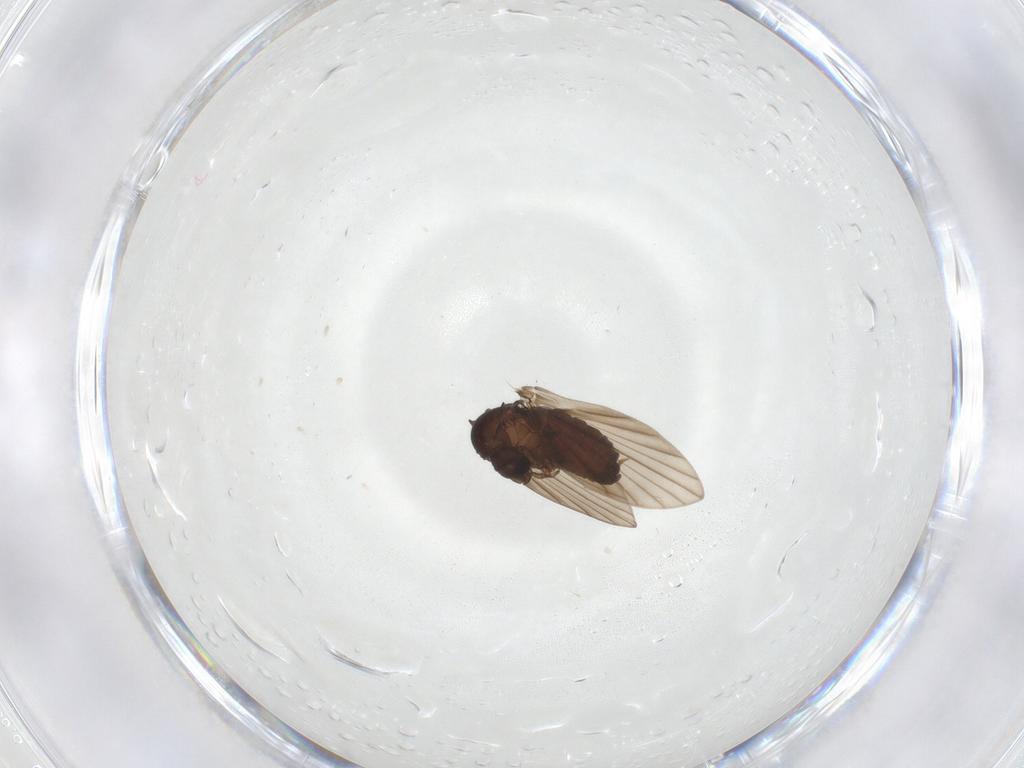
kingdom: Animalia
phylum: Arthropoda
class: Insecta
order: Diptera
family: Psychodidae
